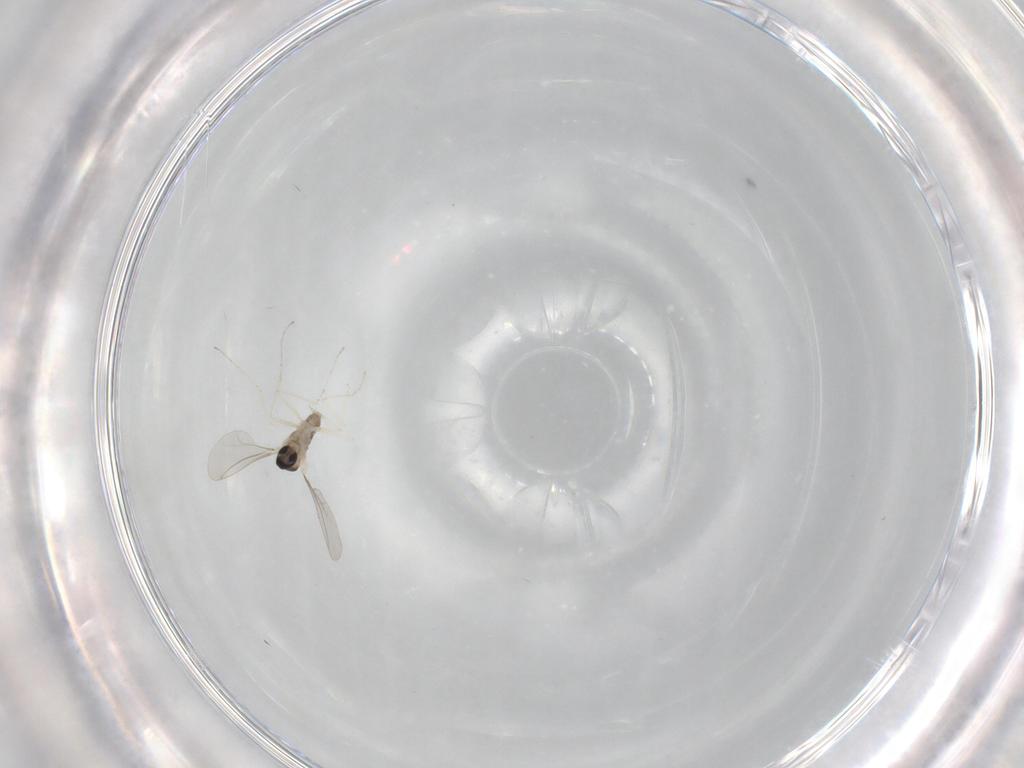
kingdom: Animalia
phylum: Arthropoda
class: Insecta
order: Diptera
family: Cecidomyiidae
